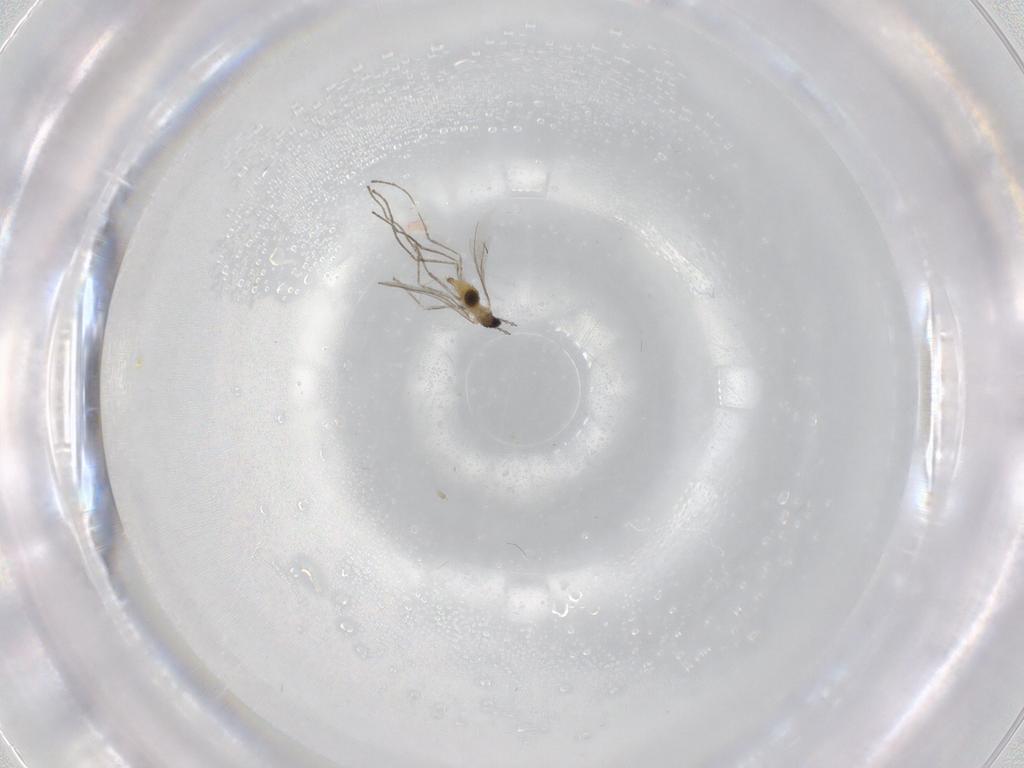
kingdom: Animalia
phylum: Arthropoda
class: Insecta
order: Diptera
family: Cecidomyiidae
